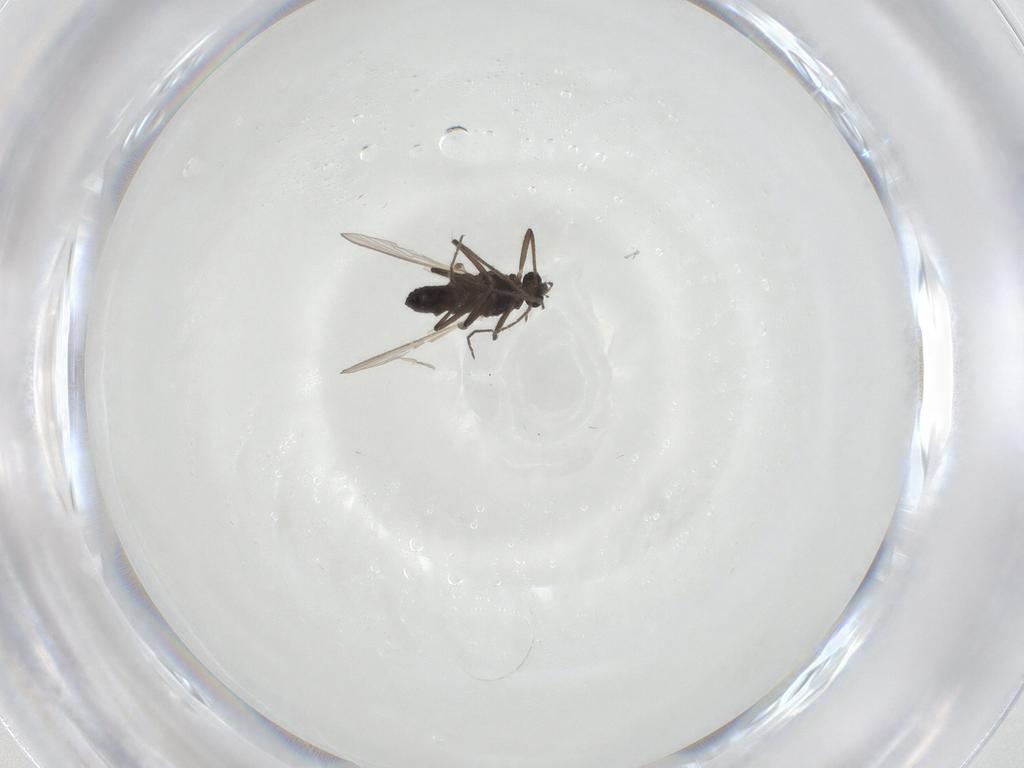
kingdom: Animalia
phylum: Arthropoda
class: Insecta
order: Diptera
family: Chironomidae
